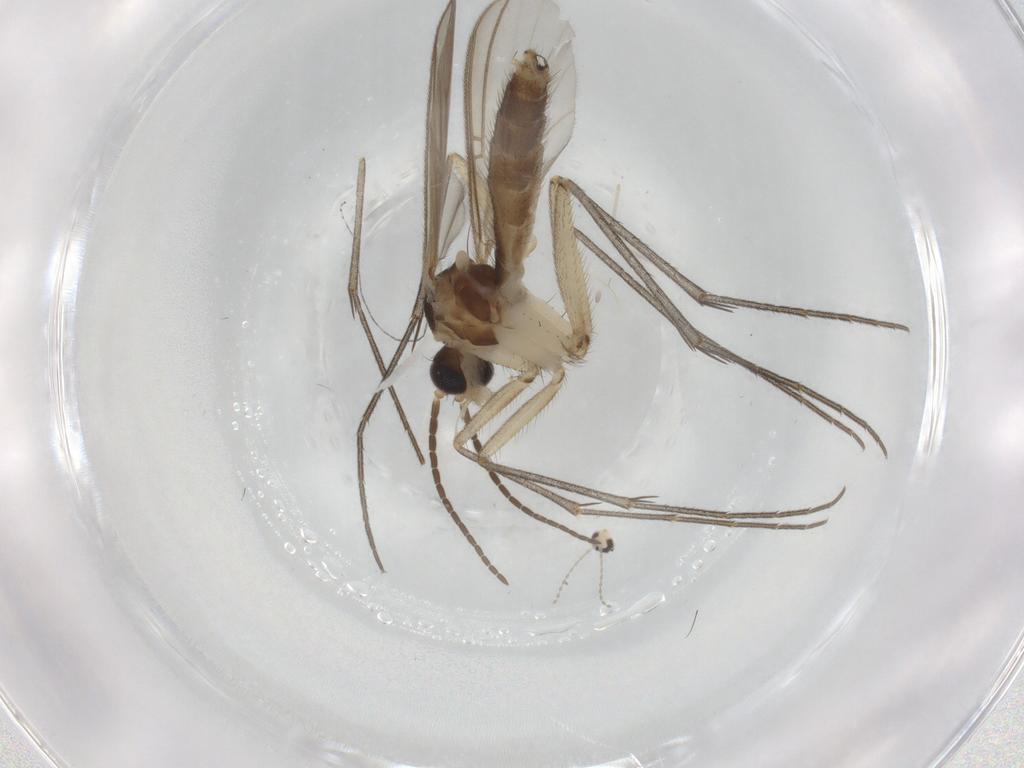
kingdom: Animalia
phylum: Arthropoda
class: Insecta
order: Diptera
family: Mycetophilidae
